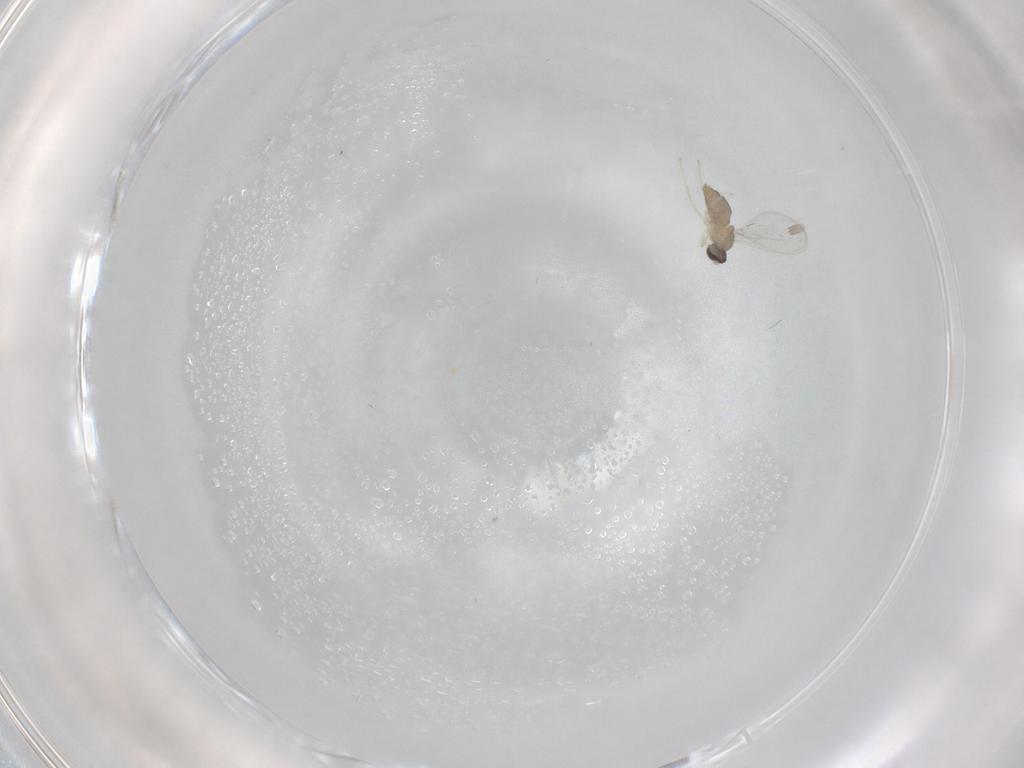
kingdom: Animalia
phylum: Arthropoda
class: Insecta
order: Diptera
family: Cecidomyiidae
